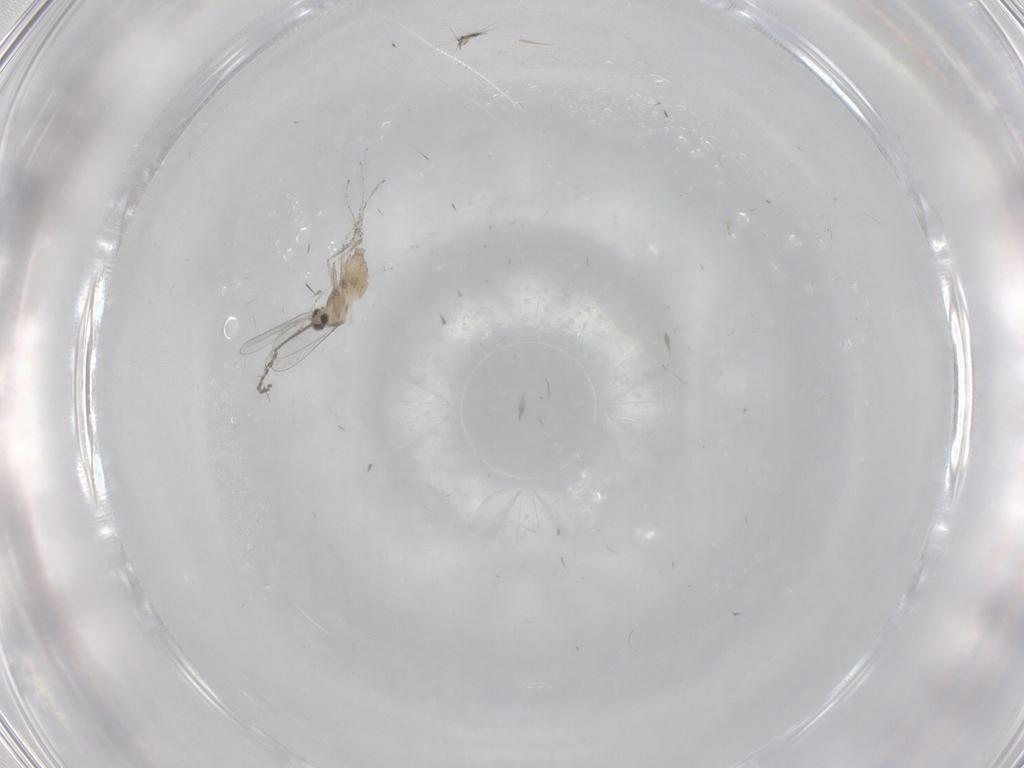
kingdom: Animalia
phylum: Arthropoda
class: Insecta
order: Diptera
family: Cecidomyiidae
